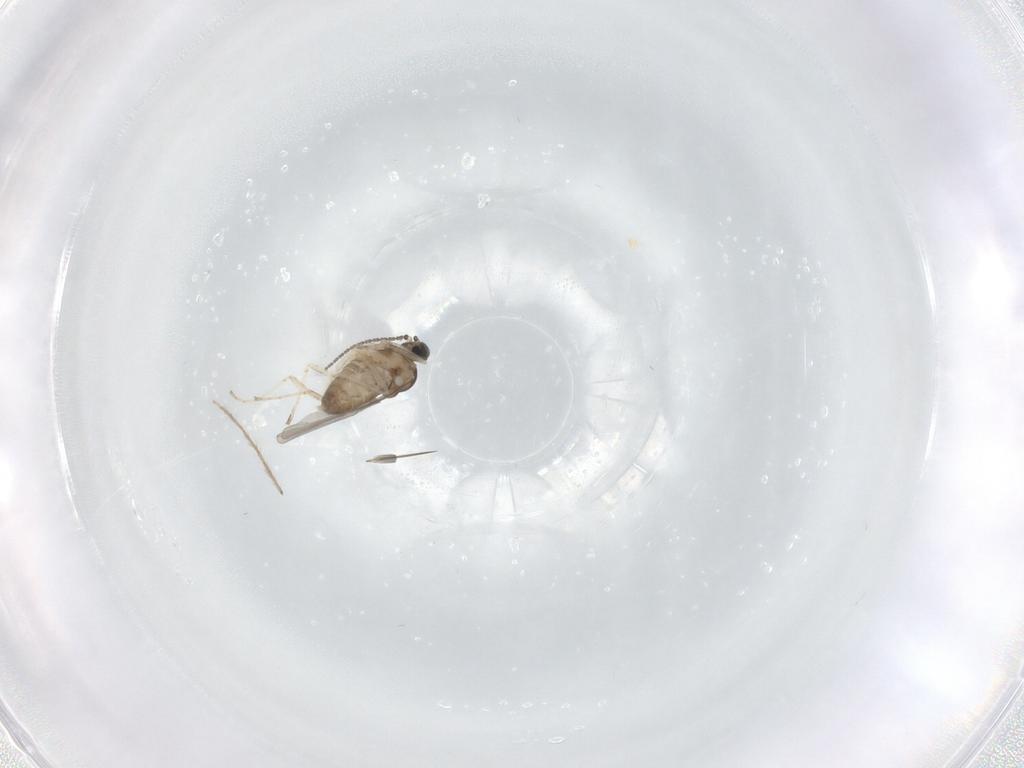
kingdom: Animalia
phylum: Arthropoda
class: Insecta
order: Diptera
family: Cecidomyiidae
